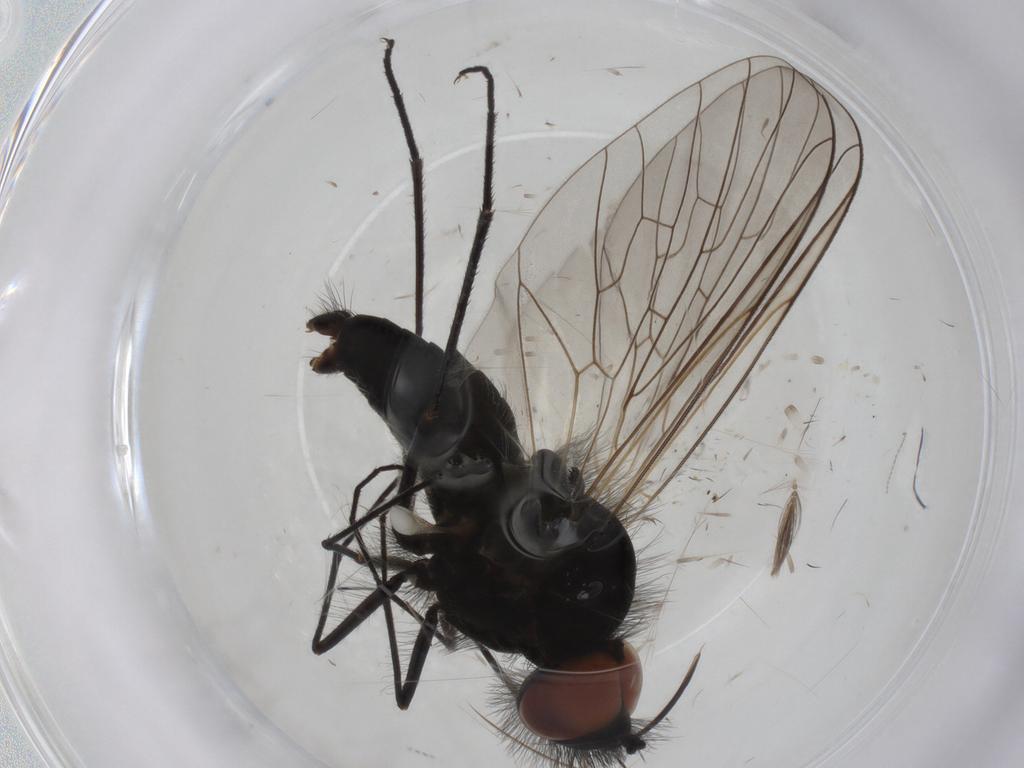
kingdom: Animalia
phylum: Arthropoda
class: Insecta
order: Diptera
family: Bombyliidae
